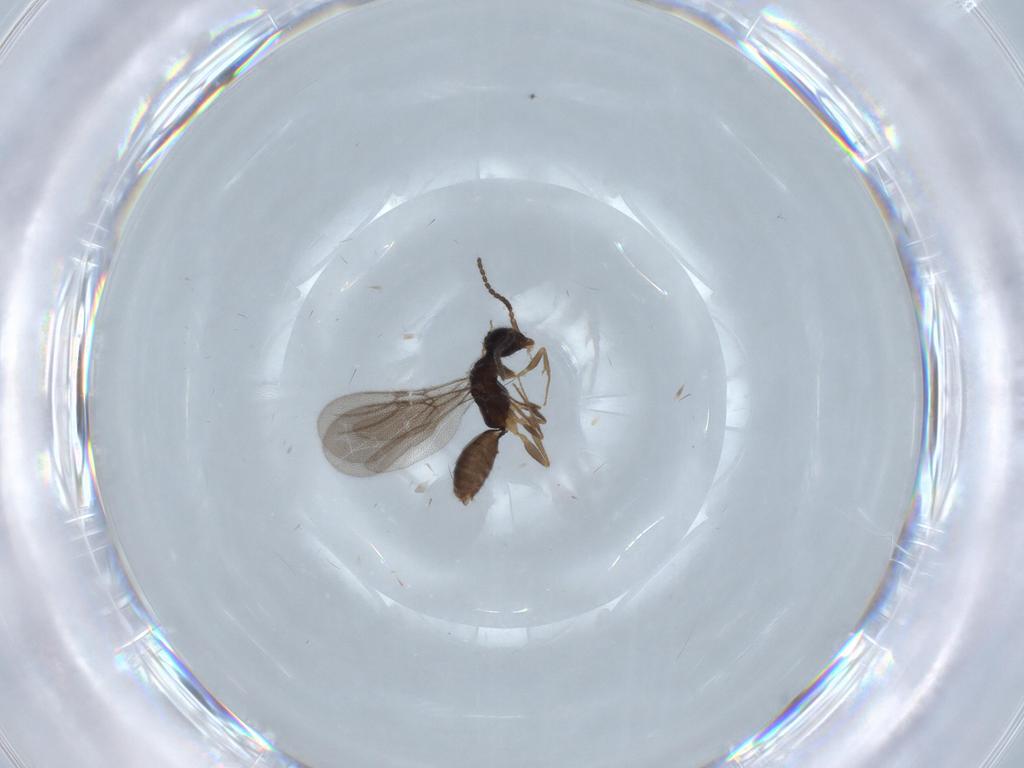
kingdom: Animalia
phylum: Arthropoda
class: Insecta
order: Hymenoptera
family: Bethylidae
